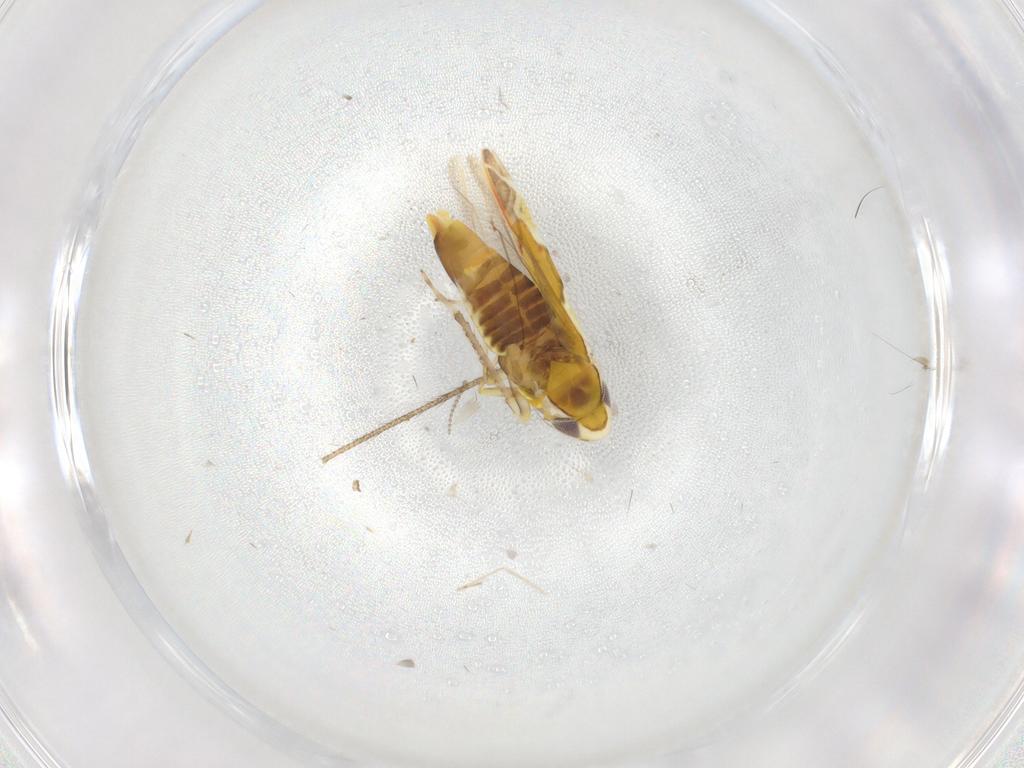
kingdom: Animalia
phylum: Arthropoda
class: Insecta
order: Hemiptera
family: Cicadellidae
